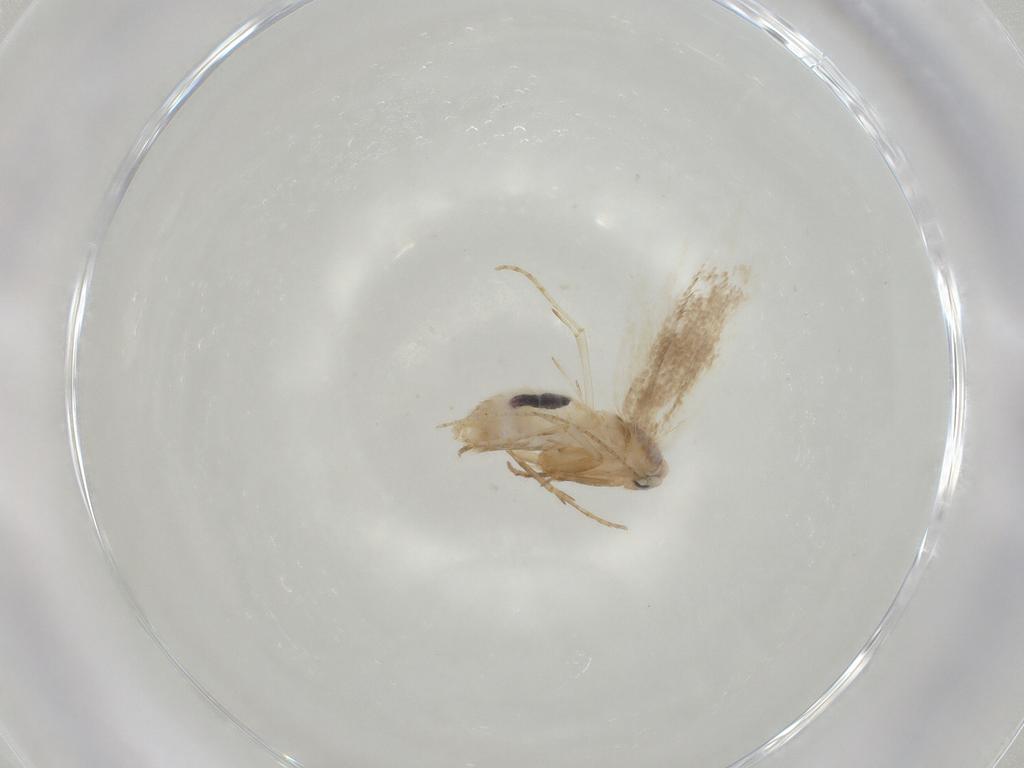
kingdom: Animalia
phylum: Arthropoda
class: Insecta
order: Lepidoptera
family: Bucculatricidae
